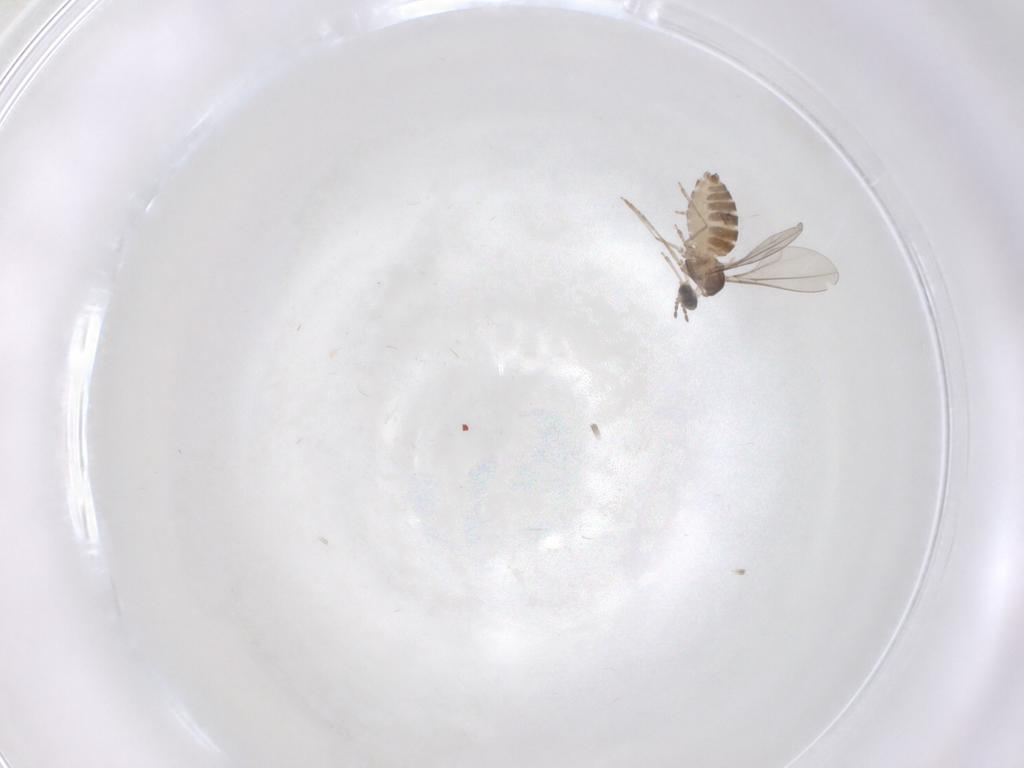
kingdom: Animalia
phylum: Arthropoda
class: Insecta
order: Diptera
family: Cecidomyiidae
